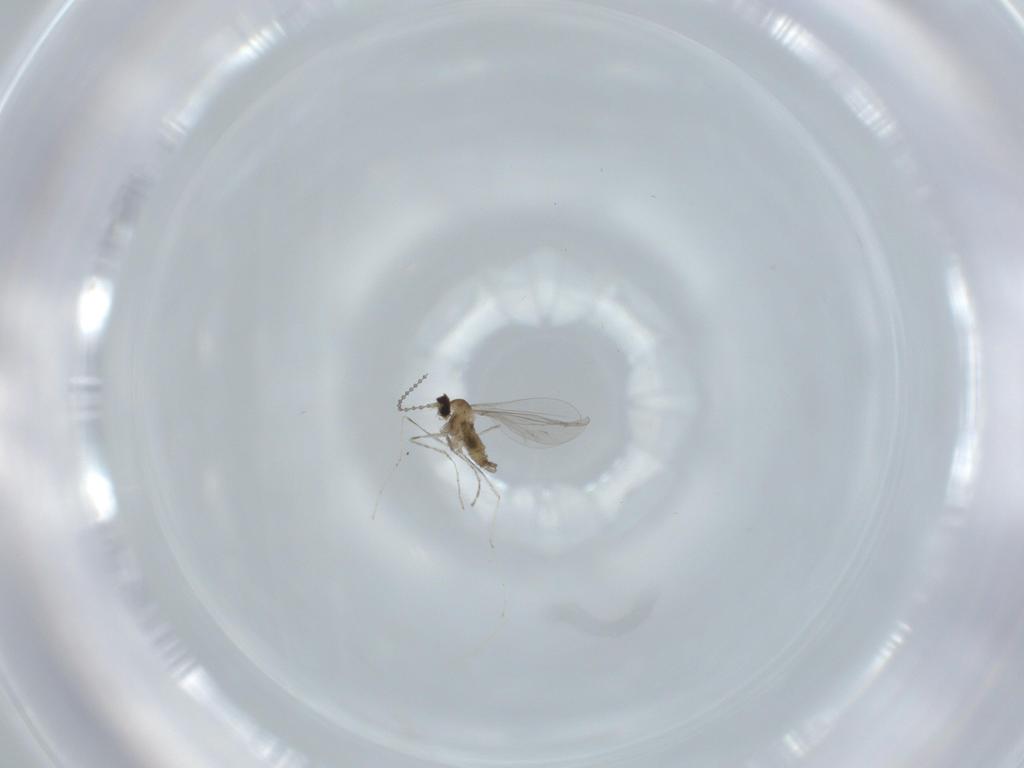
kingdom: Animalia
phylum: Arthropoda
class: Insecta
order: Diptera
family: Cecidomyiidae
